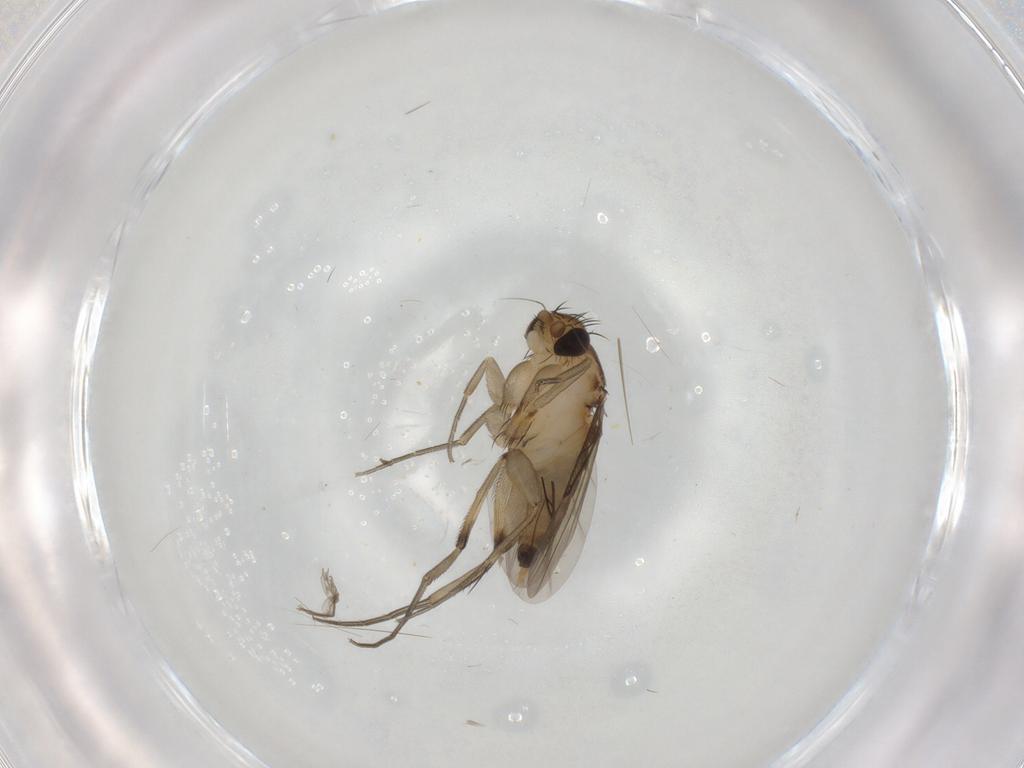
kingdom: Animalia
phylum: Arthropoda
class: Insecta
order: Diptera
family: Phoridae
